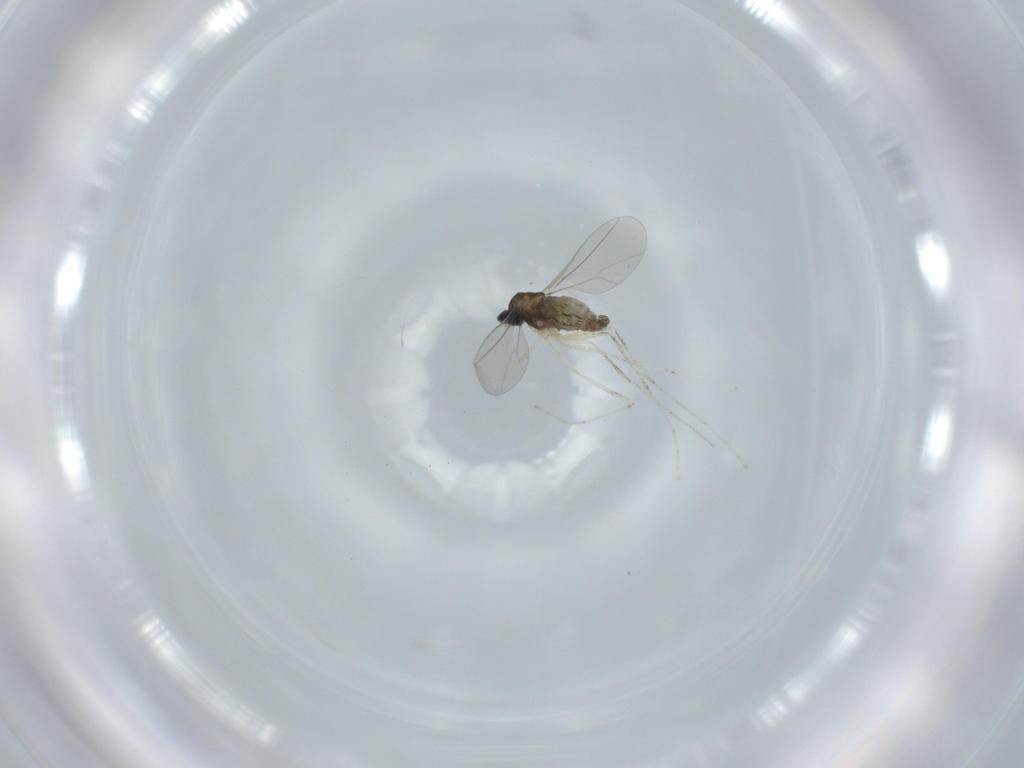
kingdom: Animalia
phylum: Arthropoda
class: Insecta
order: Diptera
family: Cecidomyiidae
